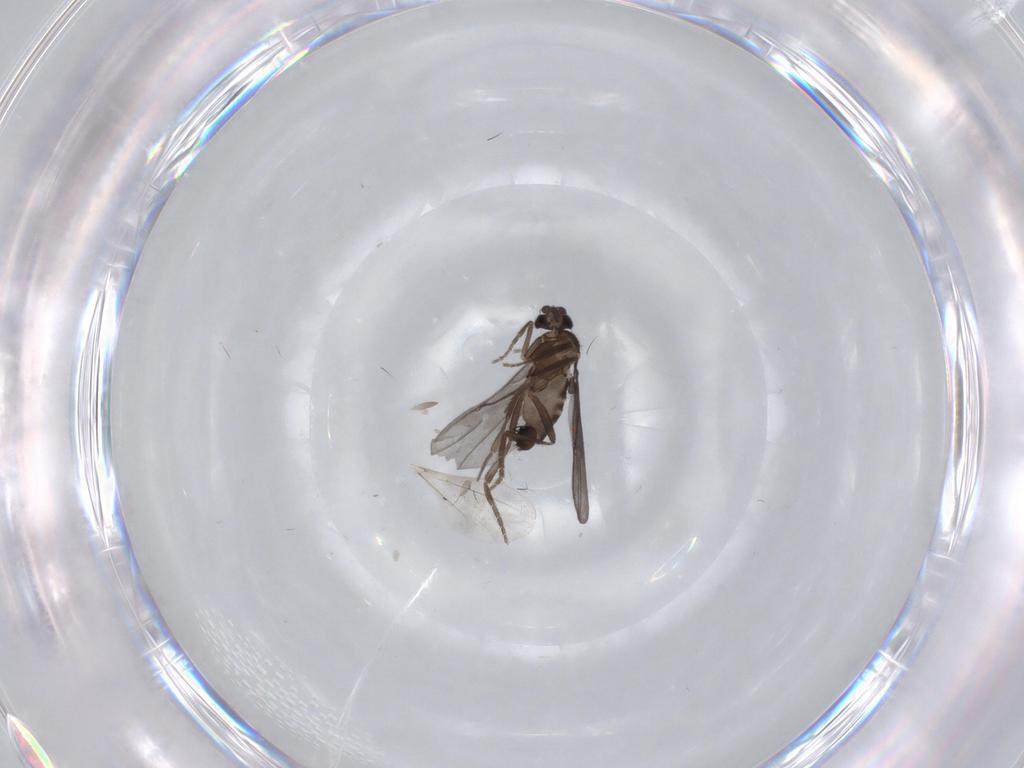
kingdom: Animalia
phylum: Arthropoda
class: Insecta
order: Diptera
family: Phoridae
